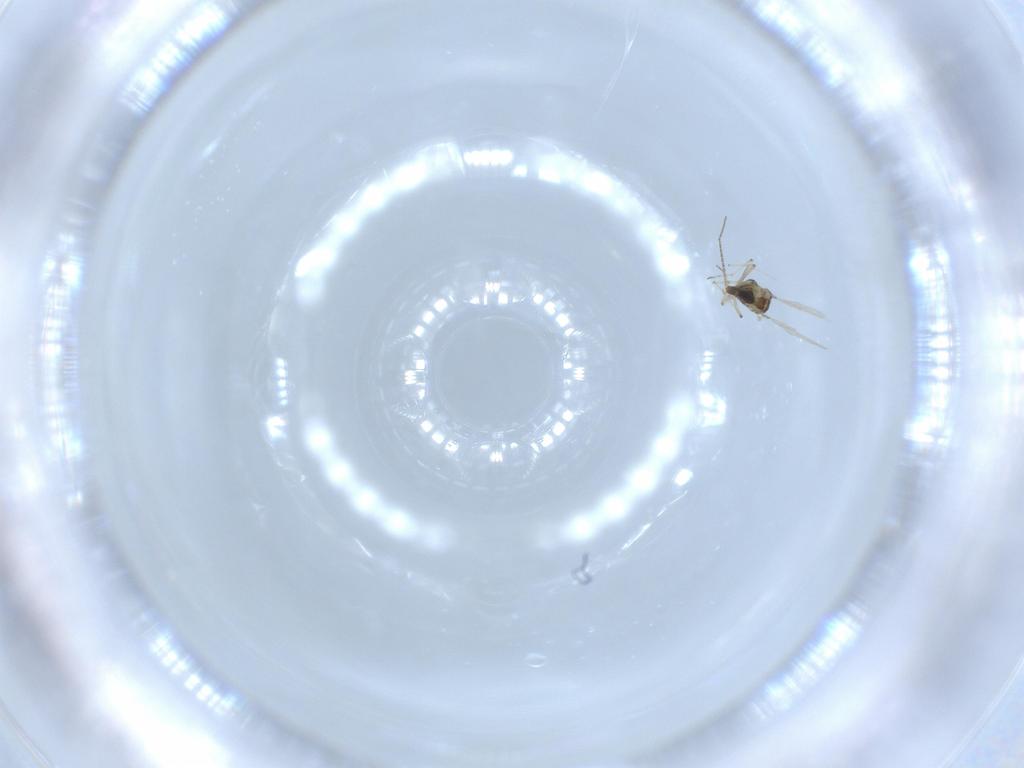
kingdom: Animalia
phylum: Arthropoda
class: Insecta
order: Diptera
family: Chironomidae
